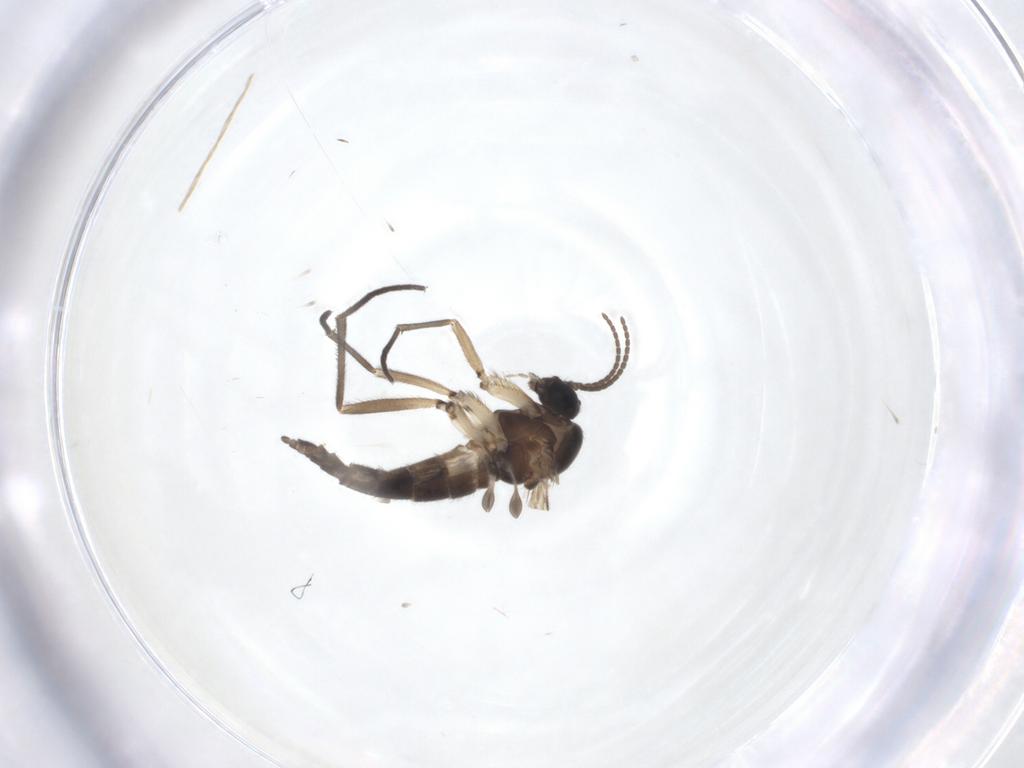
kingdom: Animalia
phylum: Arthropoda
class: Insecta
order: Diptera
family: Sciaridae
